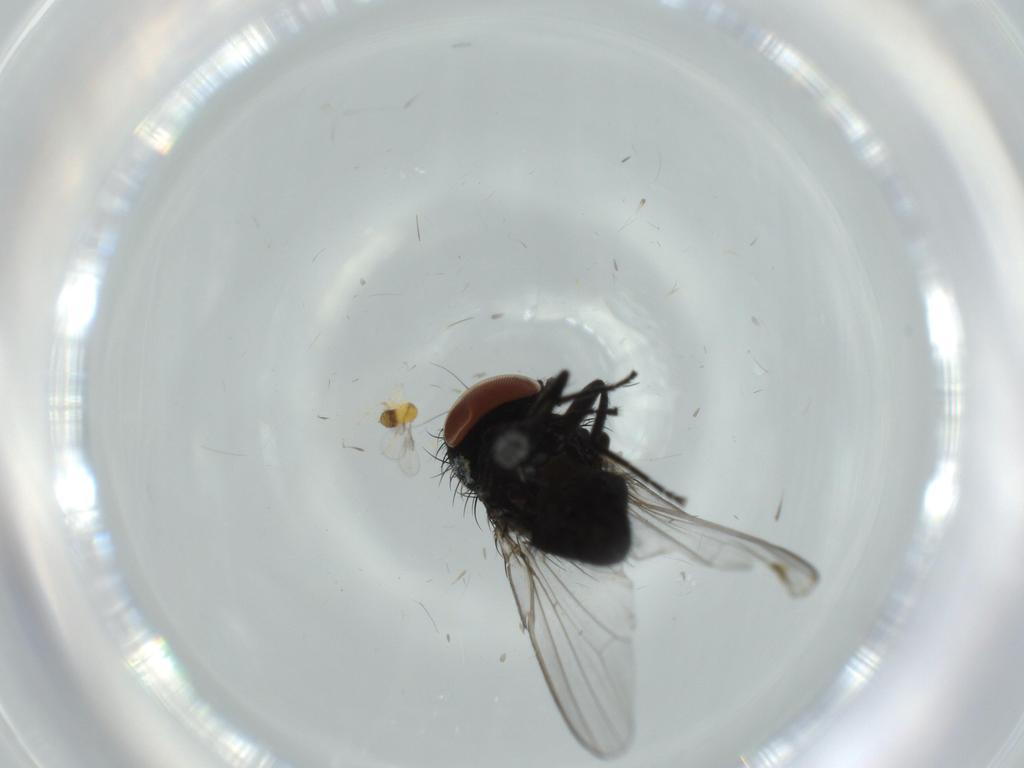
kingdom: Animalia
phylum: Arthropoda
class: Insecta
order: Diptera
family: Milichiidae
